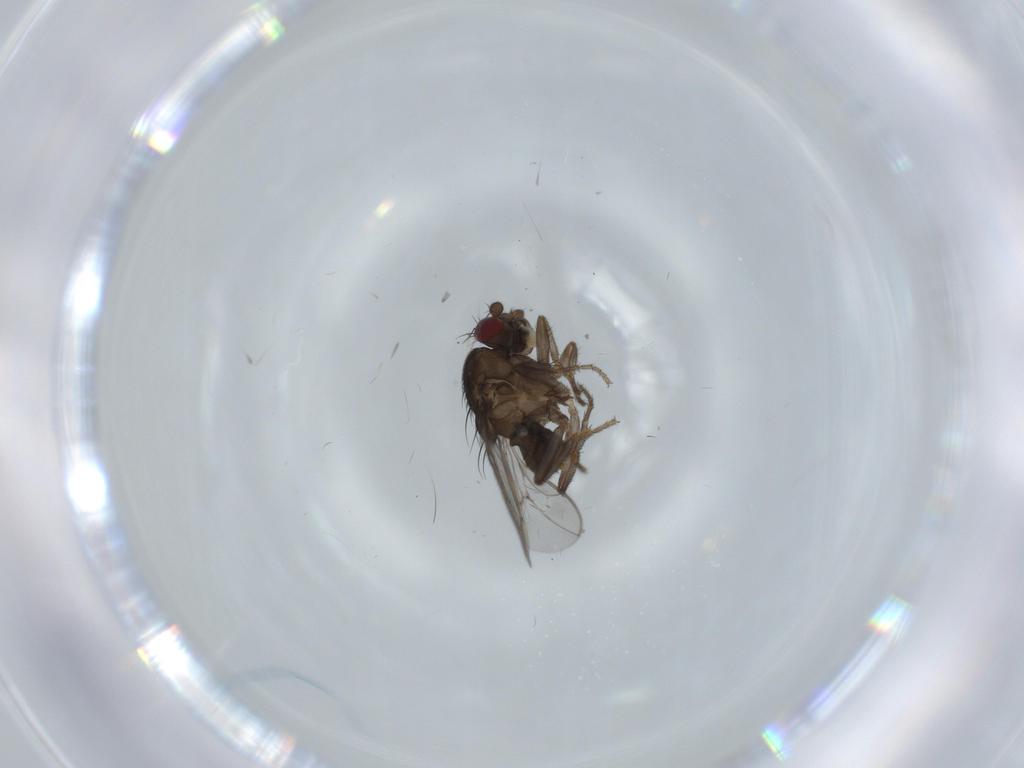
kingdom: Animalia
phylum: Arthropoda
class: Insecta
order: Diptera
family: Sphaeroceridae
